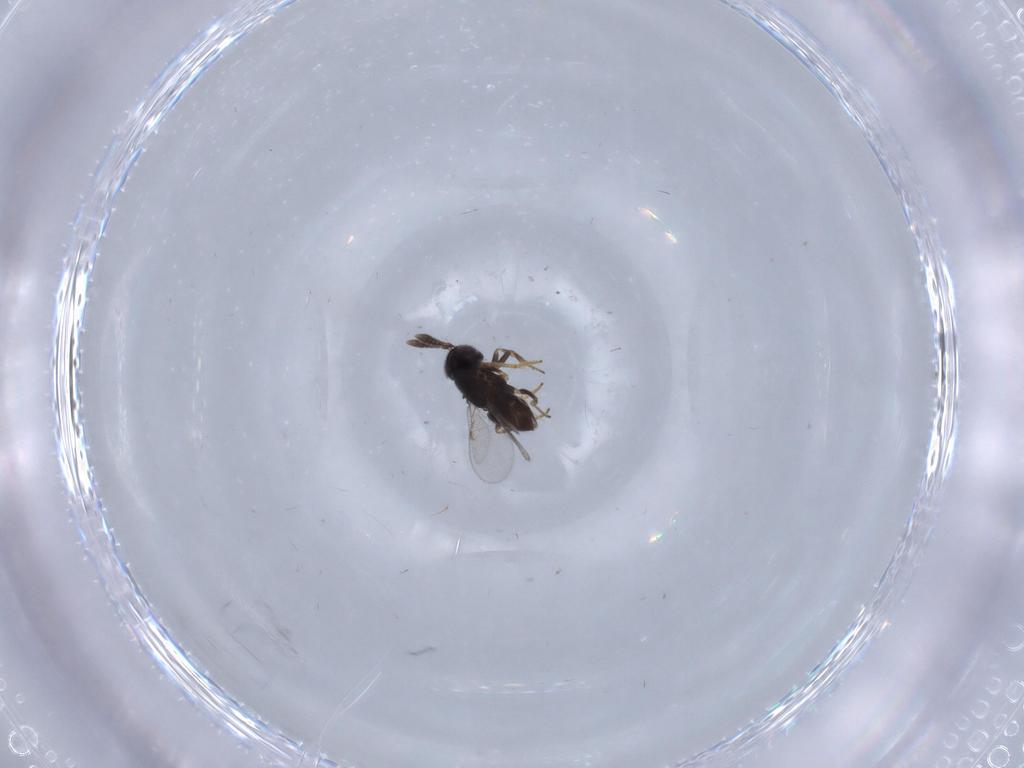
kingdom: Animalia
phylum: Arthropoda
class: Insecta
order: Hymenoptera
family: Encyrtidae
